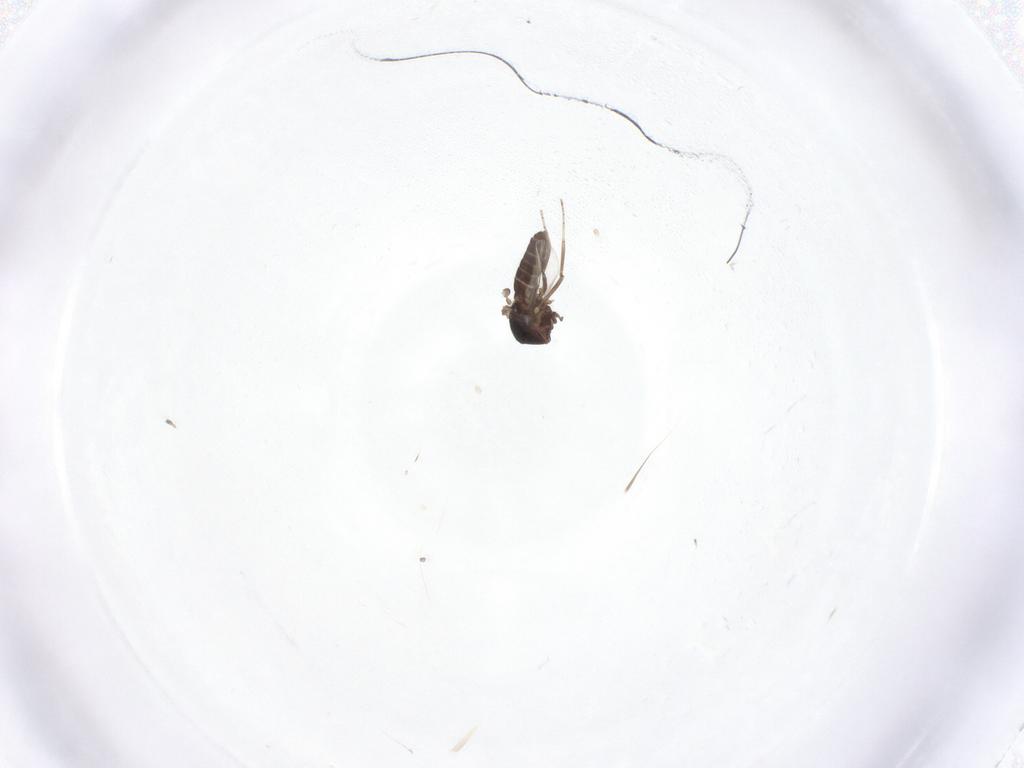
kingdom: Animalia
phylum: Arthropoda
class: Insecta
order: Diptera
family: Ceratopogonidae
